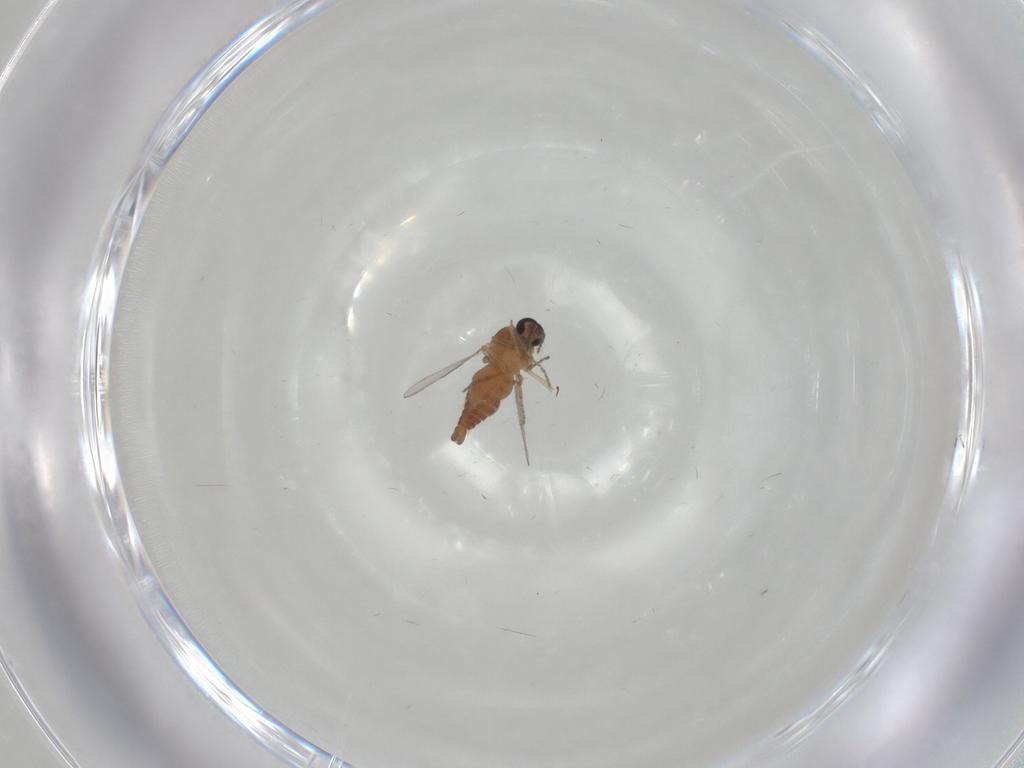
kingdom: Animalia
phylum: Arthropoda
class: Insecta
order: Diptera
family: Ceratopogonidae
